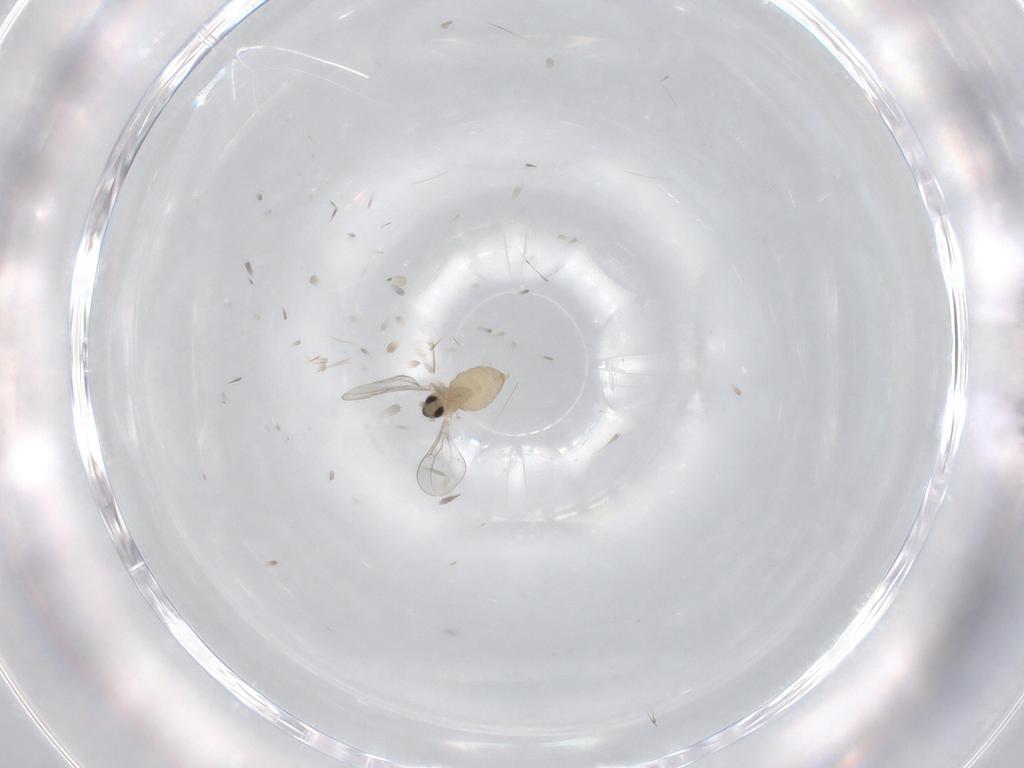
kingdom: Animalia
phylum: Arthropoda
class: Insecta
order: Diptera
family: Cecidomyiidae
